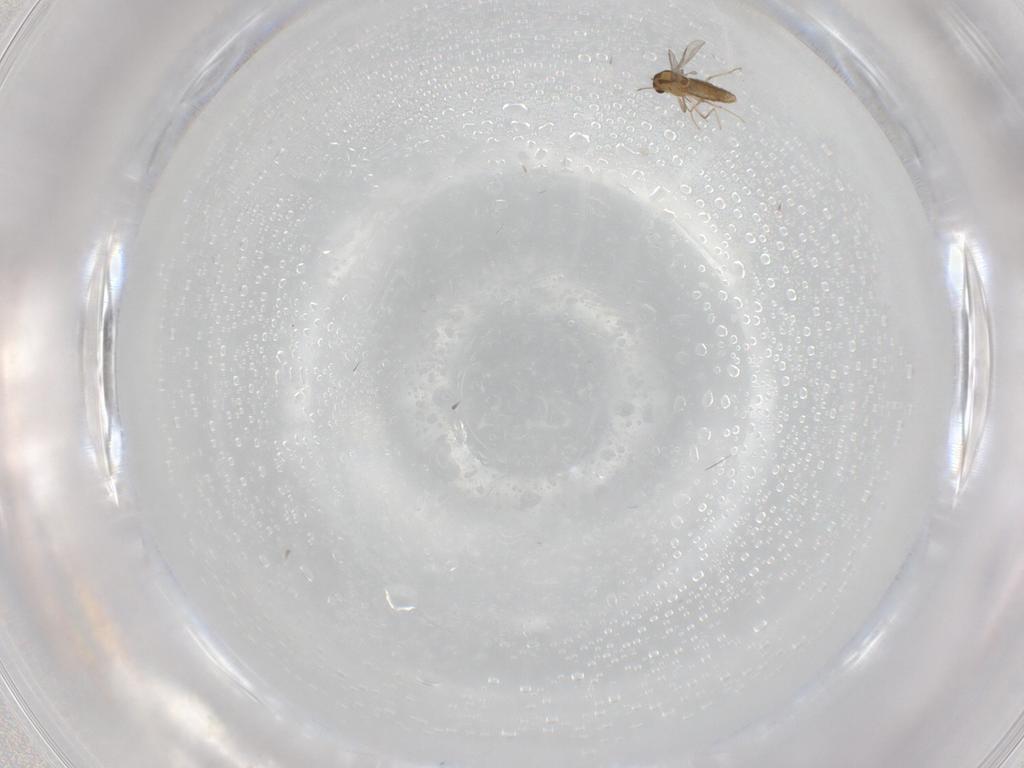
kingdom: Animalia
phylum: Arthropoda
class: Insecta
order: Diptera
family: Chironomidae
